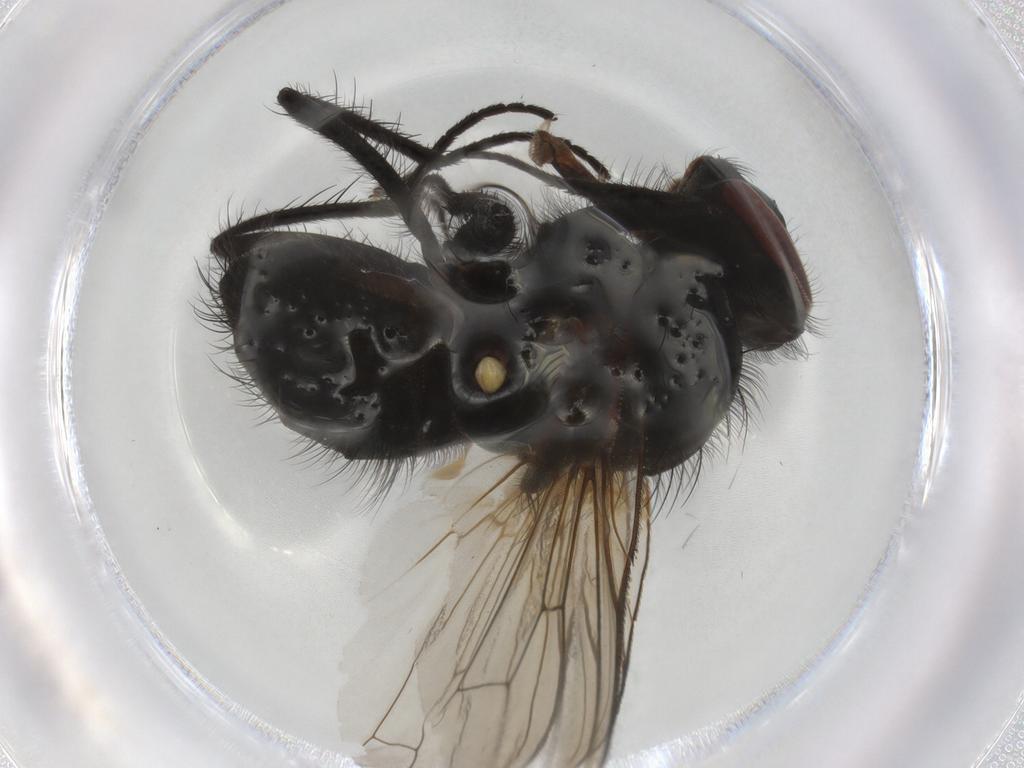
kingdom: Animalia
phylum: Arthropoda
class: Insecta
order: Diptera
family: Anthomyiidae
